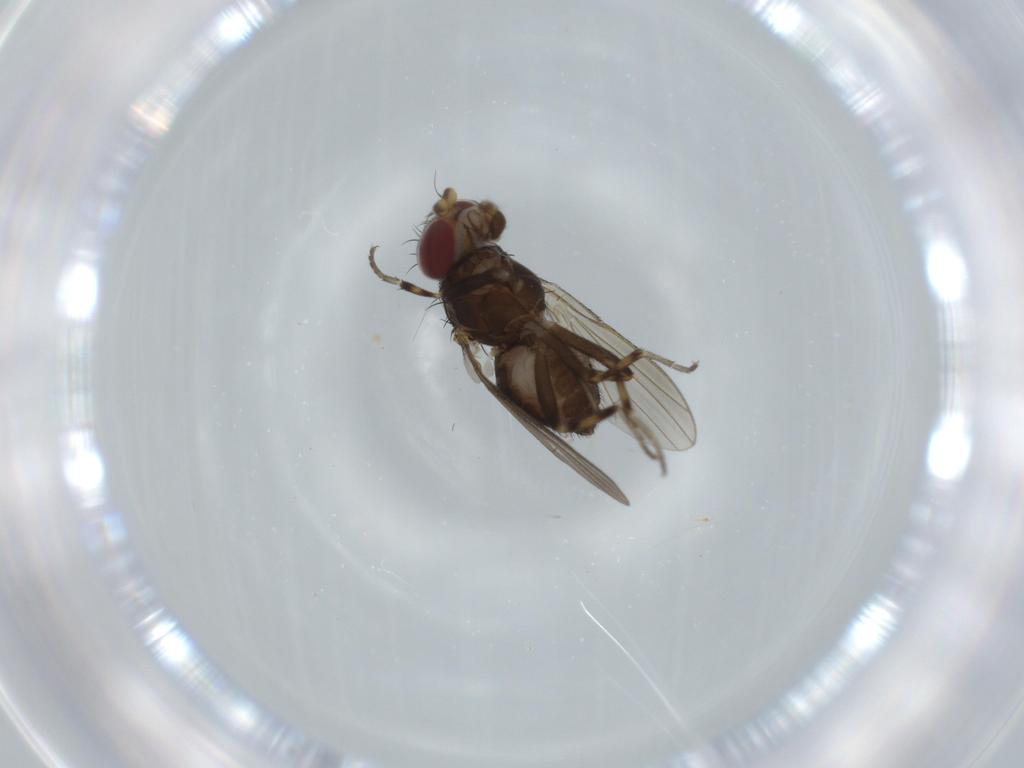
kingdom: Animalia
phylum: Arthropoda
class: Insecta
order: Diptera
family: Heleomyzidae
